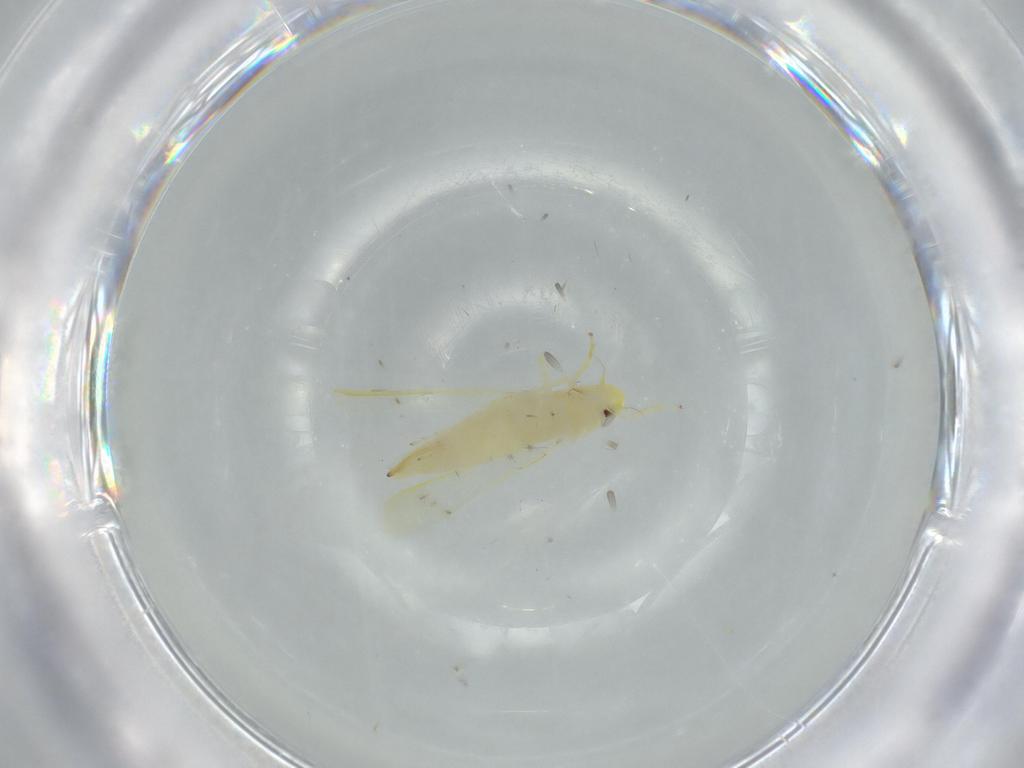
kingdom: Animalia
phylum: Arthropoda
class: Insecta
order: Hemiptera
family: Cicadellidae
